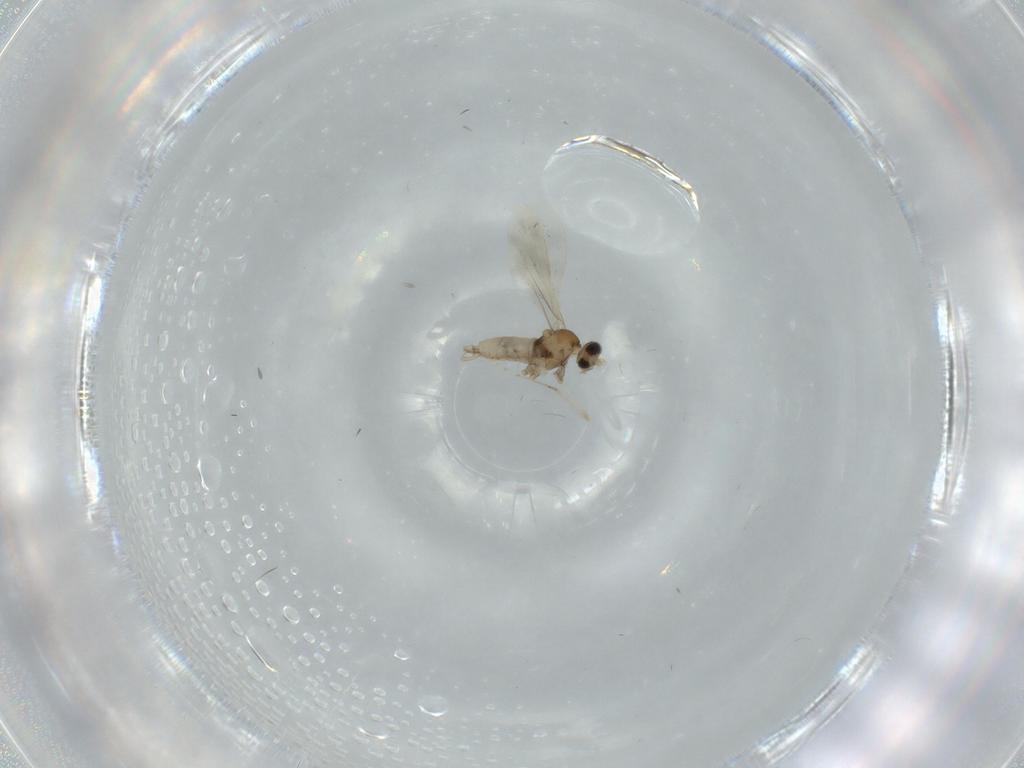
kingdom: Animalia
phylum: Arthropoda
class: Insecta
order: Diptera
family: Cecidomyiidae
